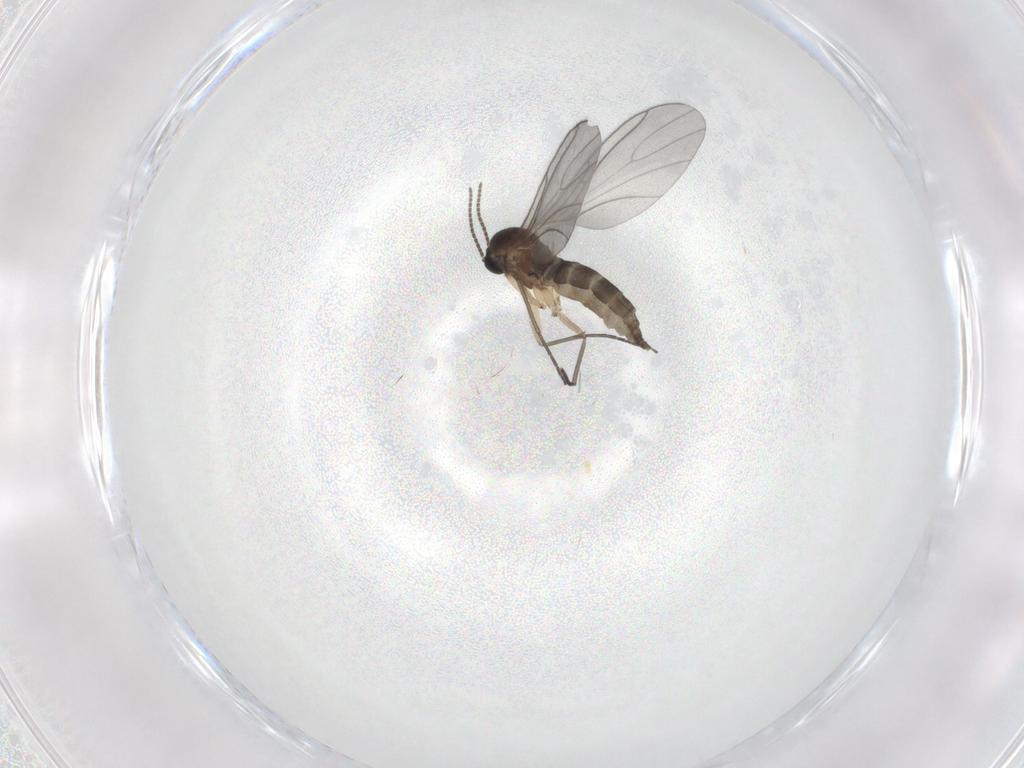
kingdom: Animalia
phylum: Arthropoda
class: Insecta
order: Diptera
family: Sciaridae
